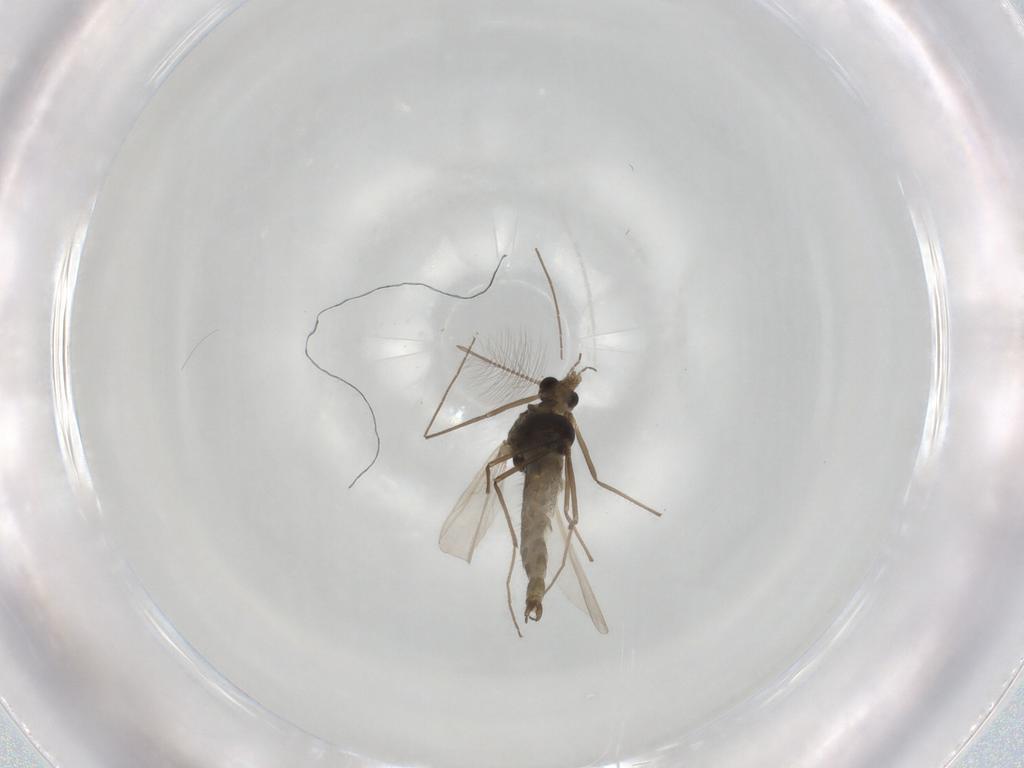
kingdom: Animalia
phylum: Arthropoda
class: Insecta
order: Diptera
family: Chironomidae
